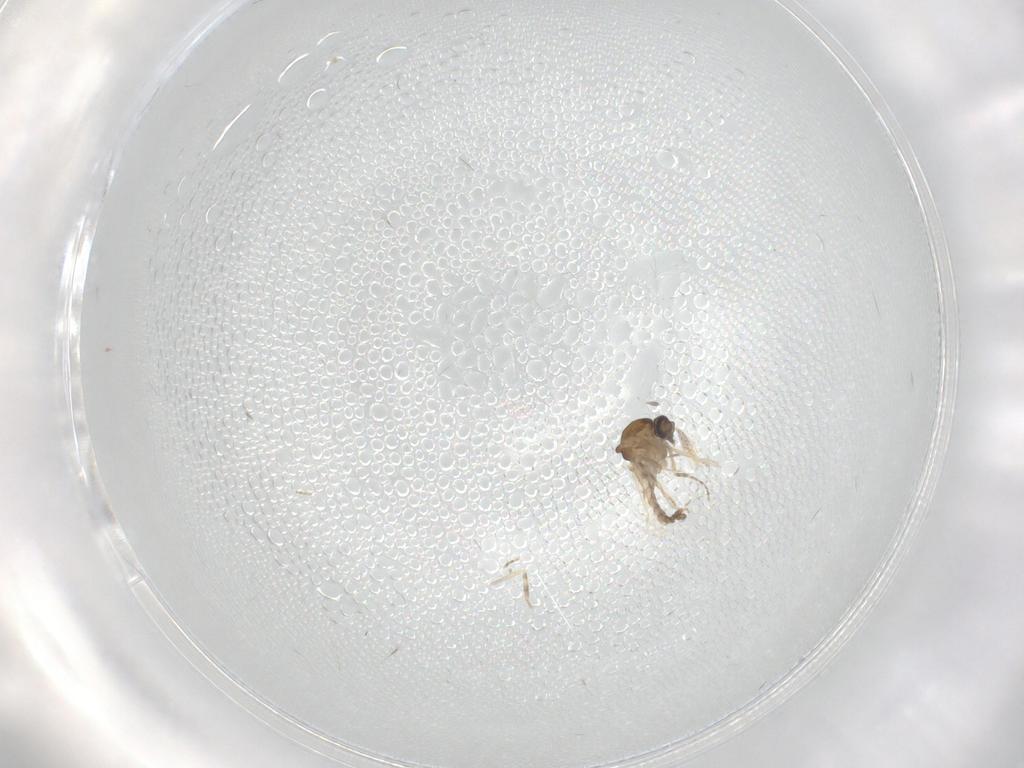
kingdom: Animalia
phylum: Arthropoda
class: Insecta
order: Diptera
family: Ceratopogonidae
